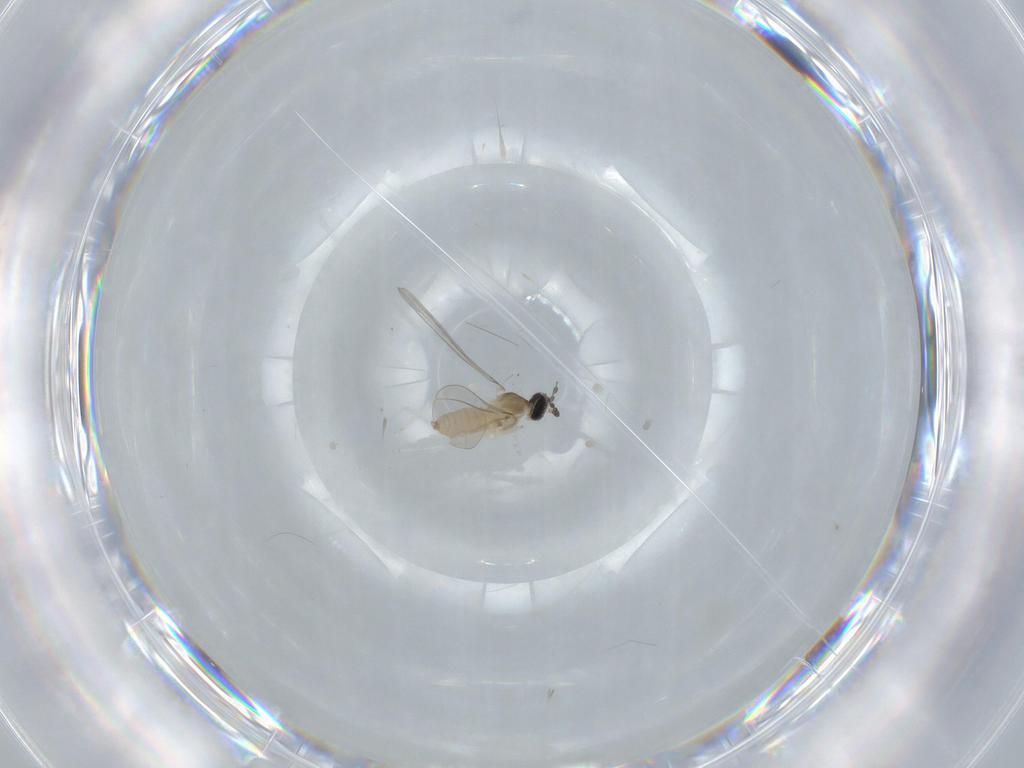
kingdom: Animalia
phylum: Arthropoda
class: Insecta
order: Diptera
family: Cecidomyiidae
